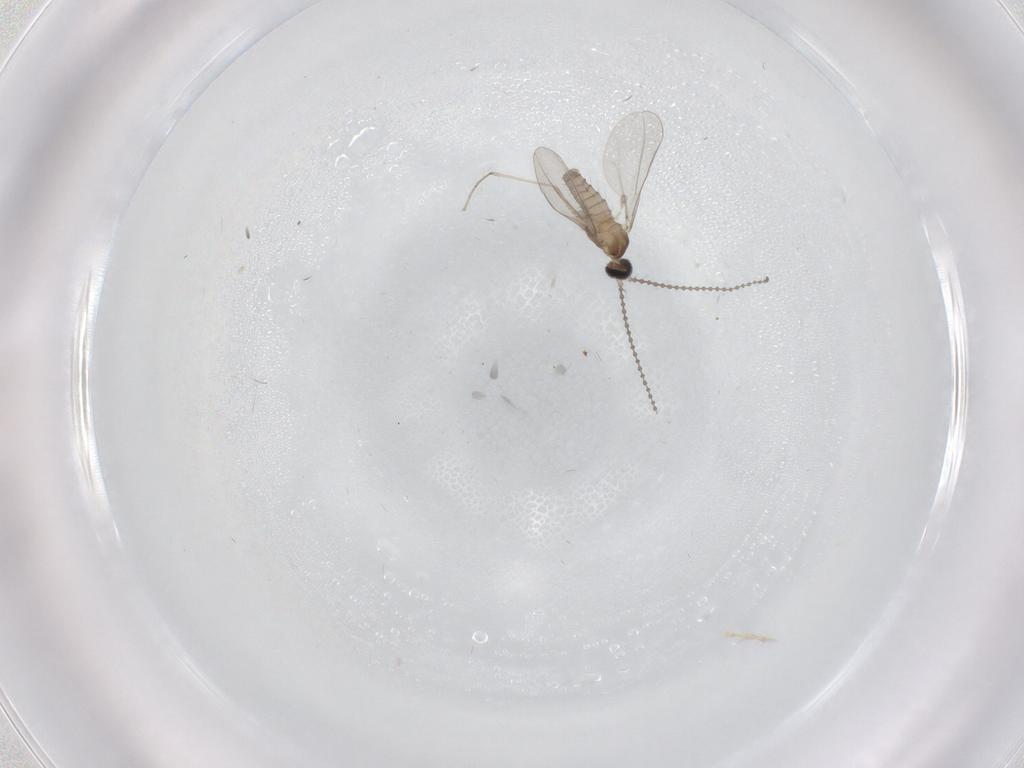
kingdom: Animalia
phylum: Arthropoda
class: Insecta
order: Diptera
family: Cecidomyiidae
